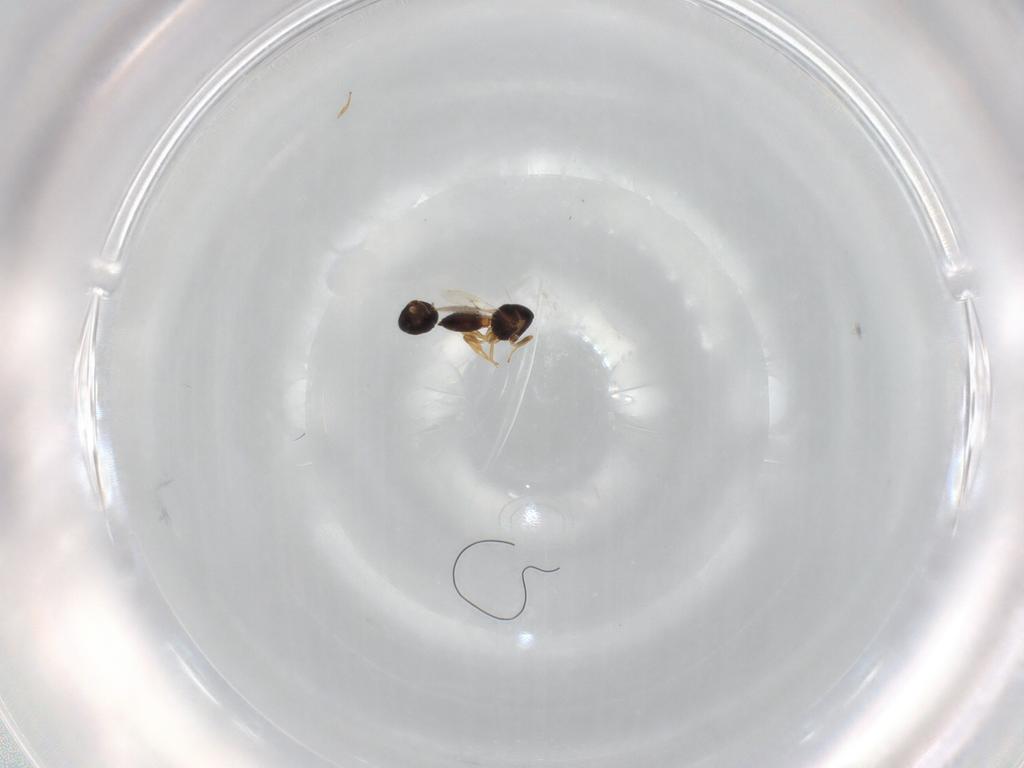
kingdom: Animalia
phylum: Arthropoda
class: Insecta
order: Hymenoptera
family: Scelionidae
